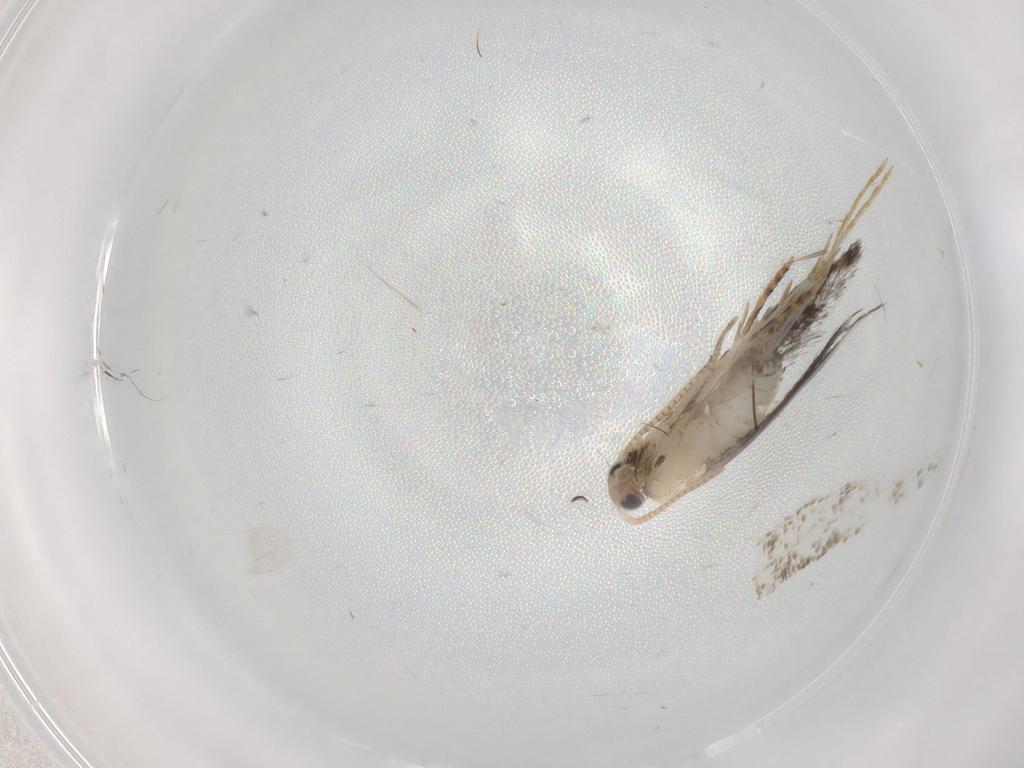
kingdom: Animalia
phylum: Arthropoda
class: Insecta
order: Lepidoptera
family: Tineidae
